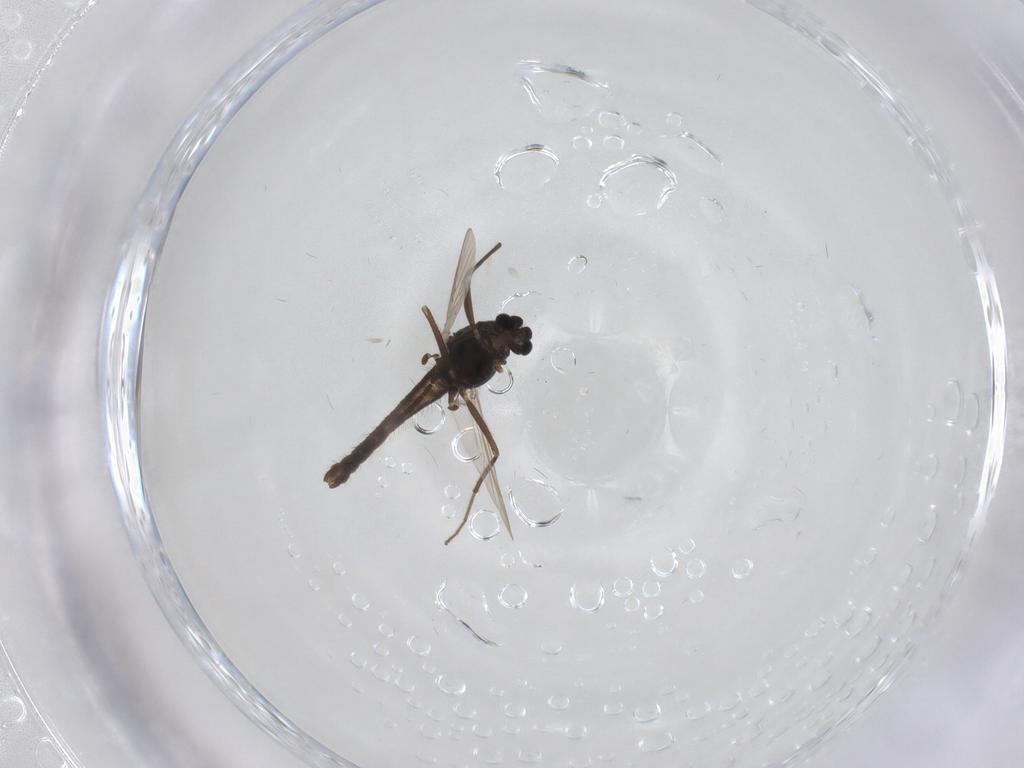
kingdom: Animalia
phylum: Arthropoda
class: Insecta
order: Diptera
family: Chironomidae
